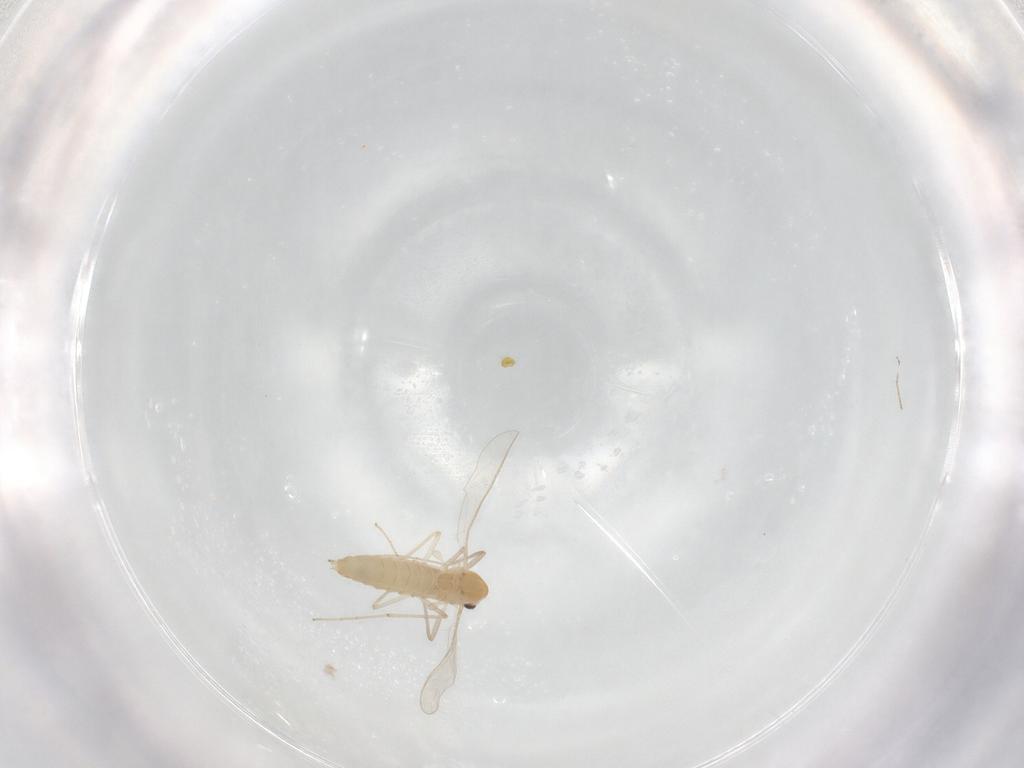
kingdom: Animalia
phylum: Arthropoda
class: Insecta
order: Diptera
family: Chironomidae
